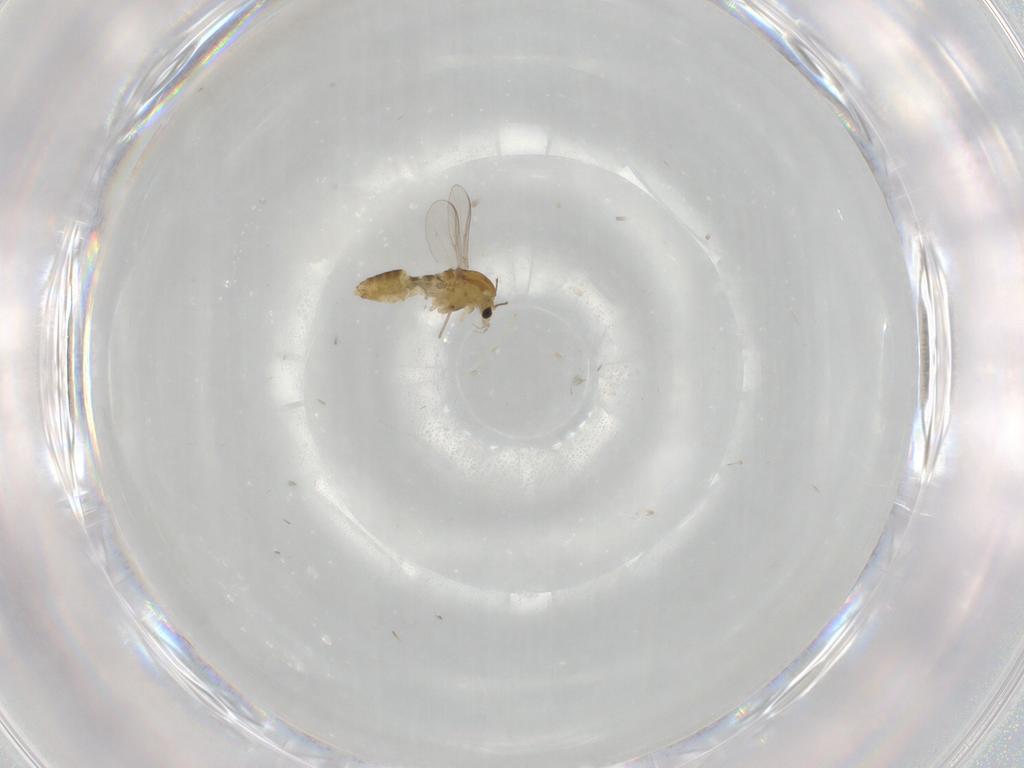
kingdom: Animalia
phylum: Arthropoda
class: Insecta
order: Diptera
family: Chironomidae
